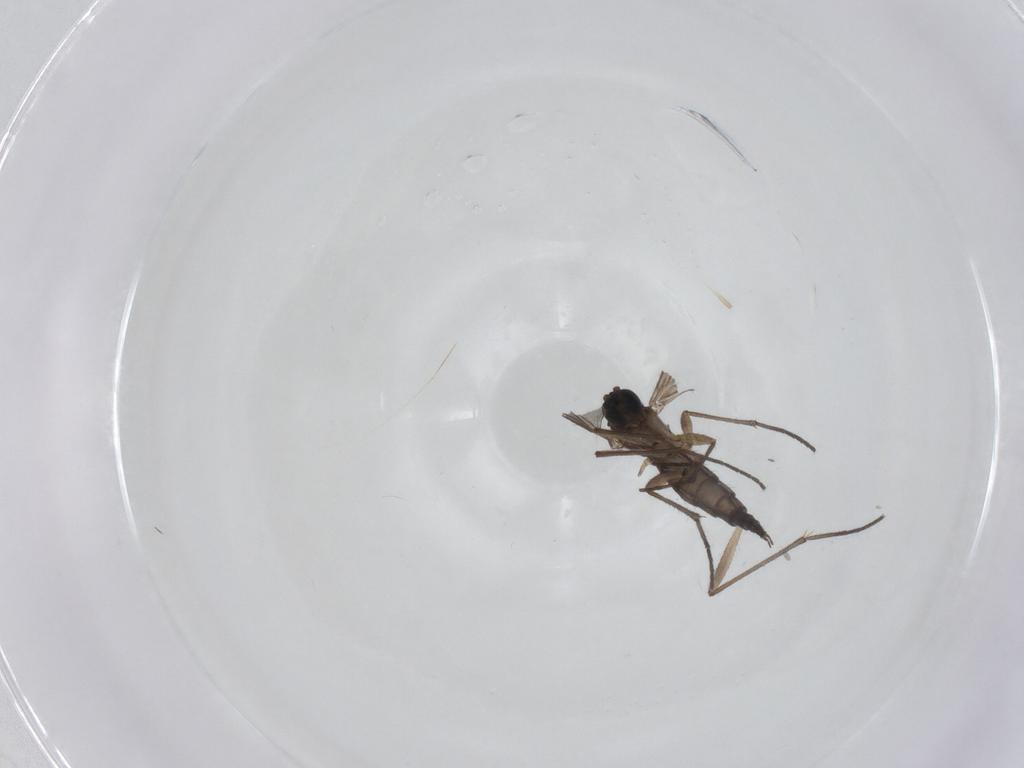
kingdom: Animalia
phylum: Arthropoda
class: Insecta
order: Diptera
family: Sciaridae
